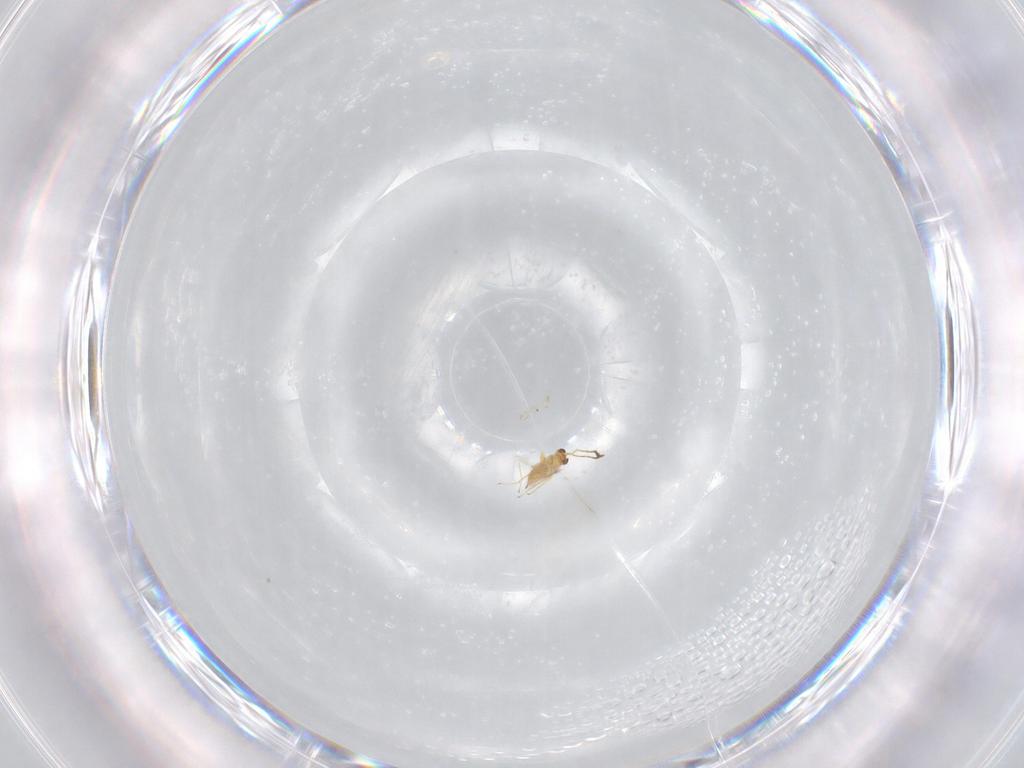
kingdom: Animalia
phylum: Arthropoda
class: Insecta
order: Hymenoptera
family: Mymaridae
